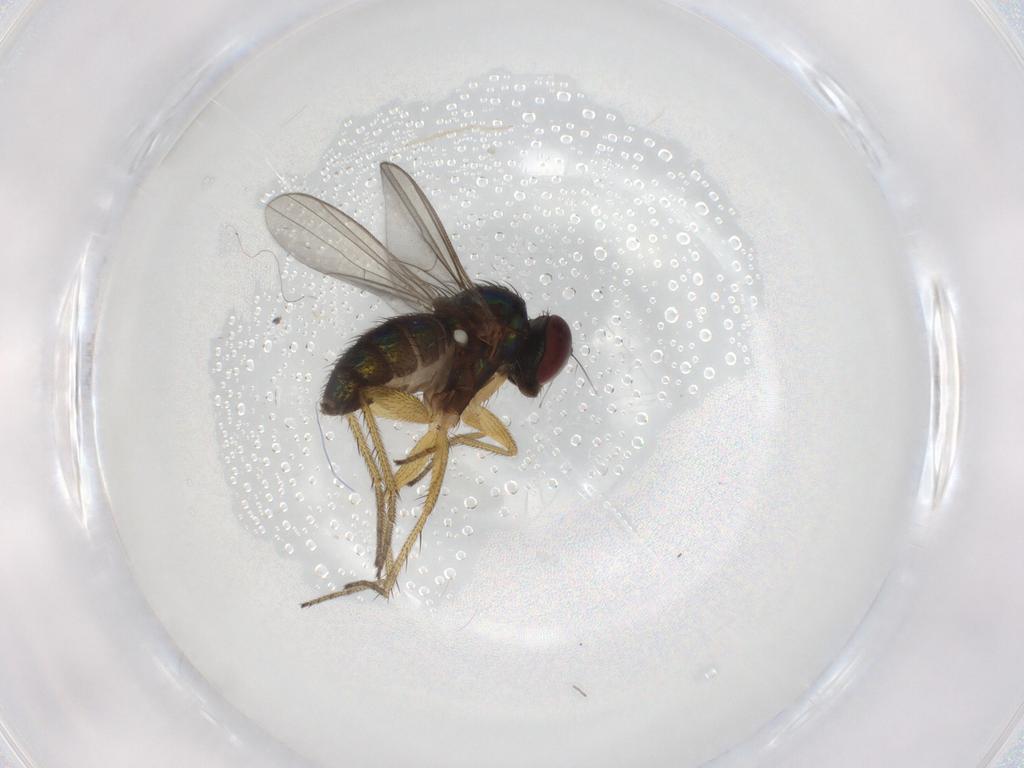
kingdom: Animalia
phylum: Arthropoda
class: Insecta
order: Diptera
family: Muscidae
